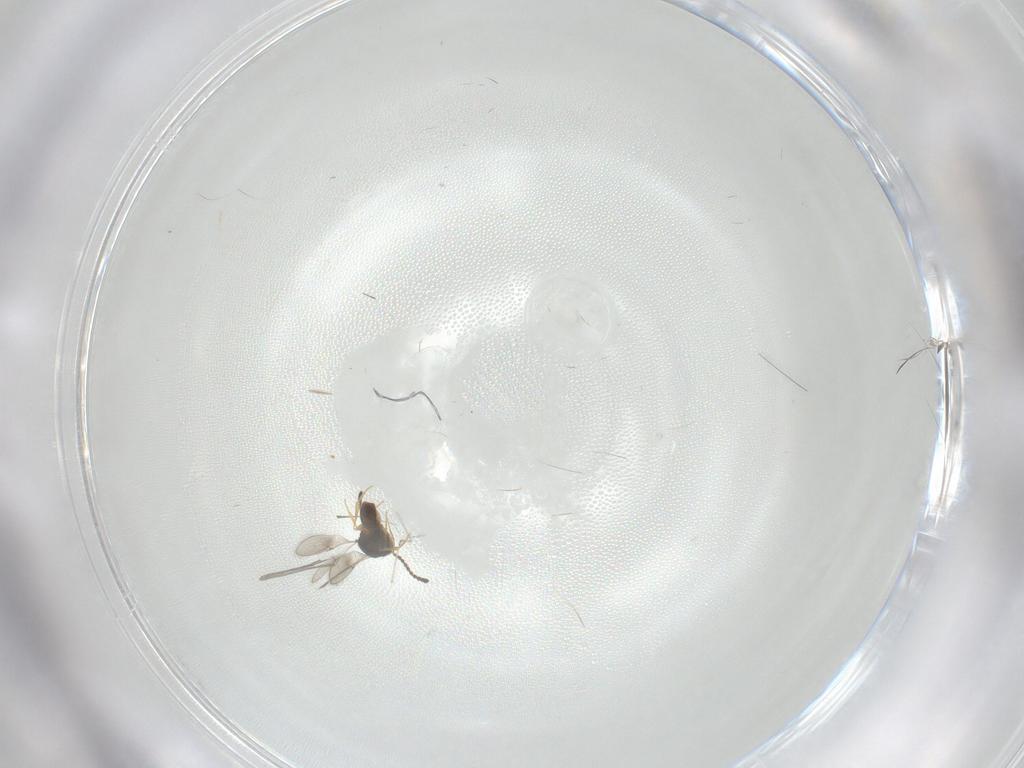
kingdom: Animalia
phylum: Arthropoda
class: Insecta
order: Hymenoptera
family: Scelionidae
